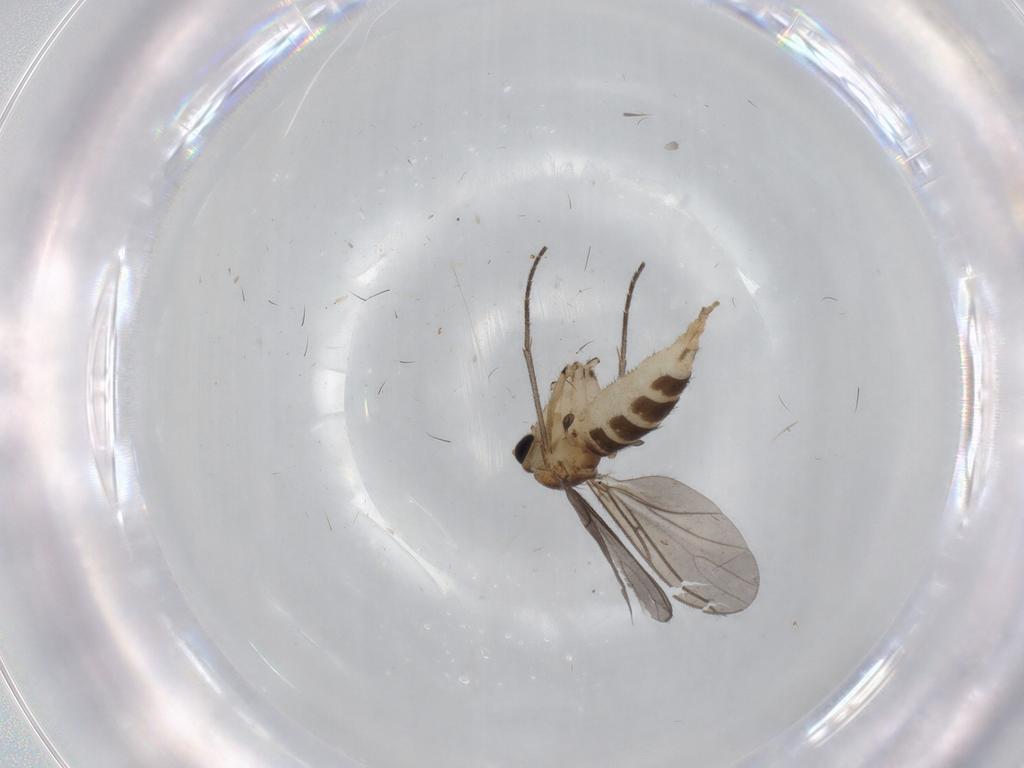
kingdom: Animalia
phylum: Arthropoda
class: Insecta
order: Diptera
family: Sciaridae
